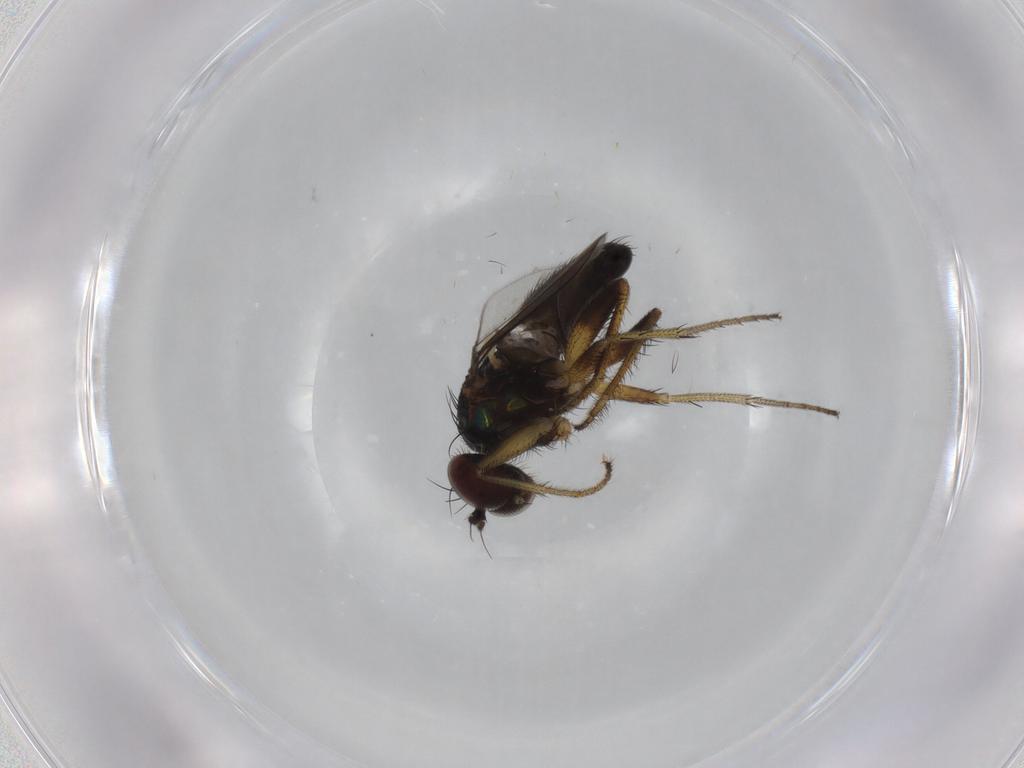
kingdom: Animalia
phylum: Arthropoda
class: Insecta
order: Diptera
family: Dolichopodidae
